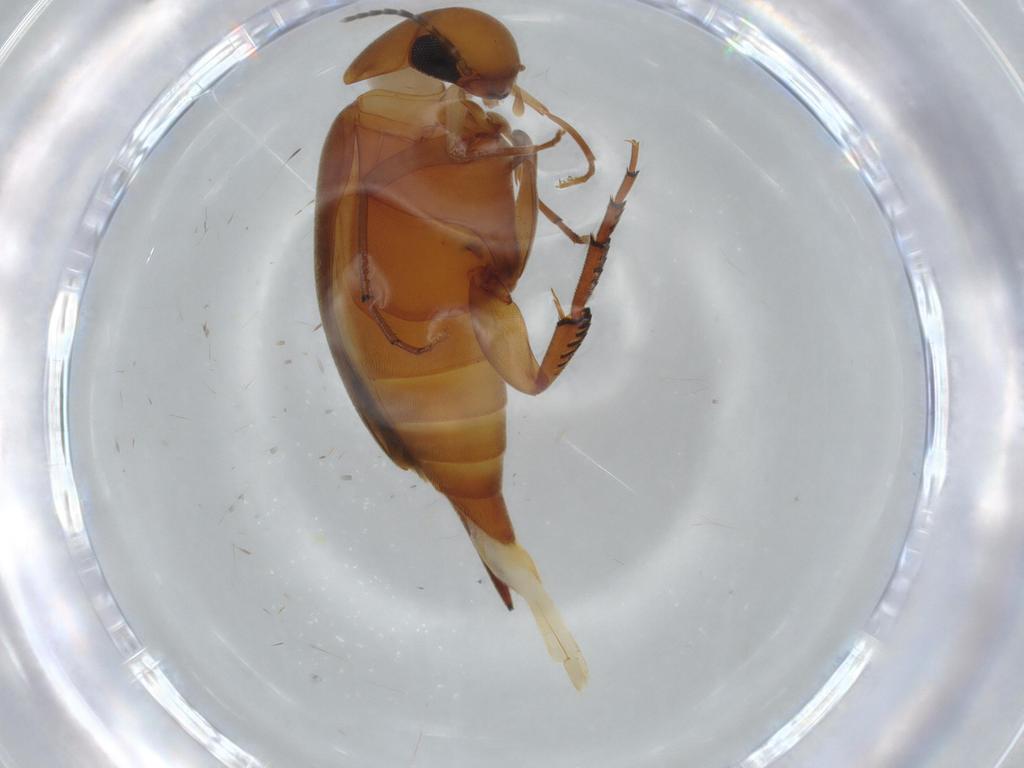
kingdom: Animalia
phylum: Arthropoda
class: Insecta
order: Coleoptera
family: Mordellidae
